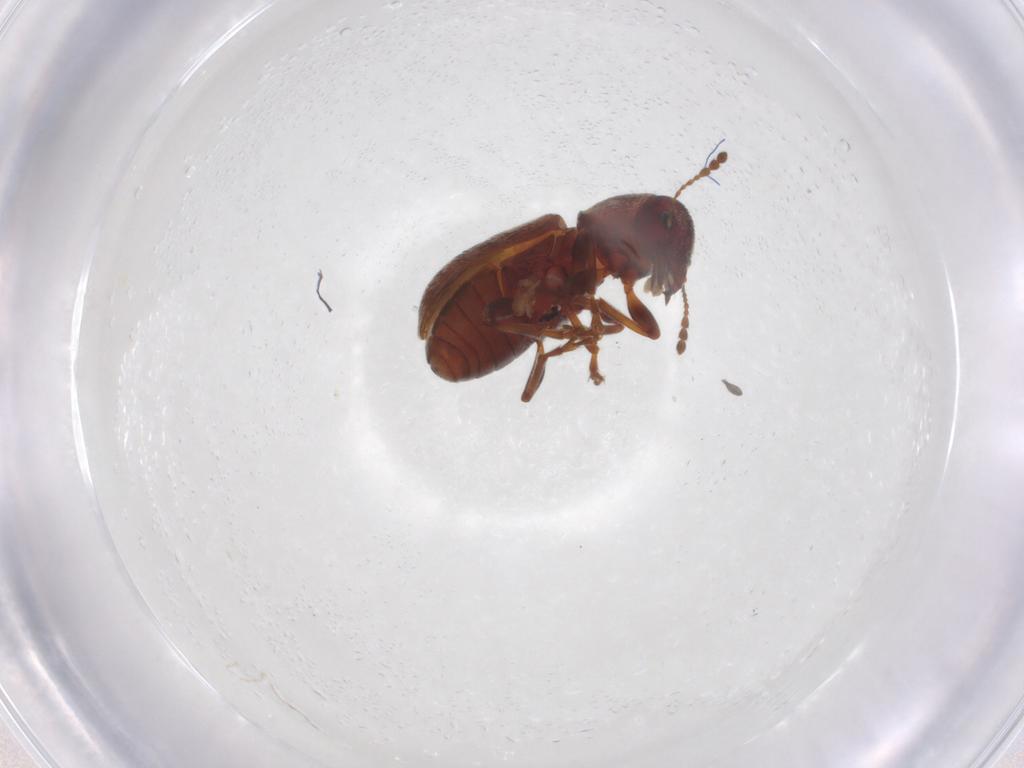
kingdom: Animalia
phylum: Arthropoda
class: Insecta
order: Coleoptera
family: Anthribidae
